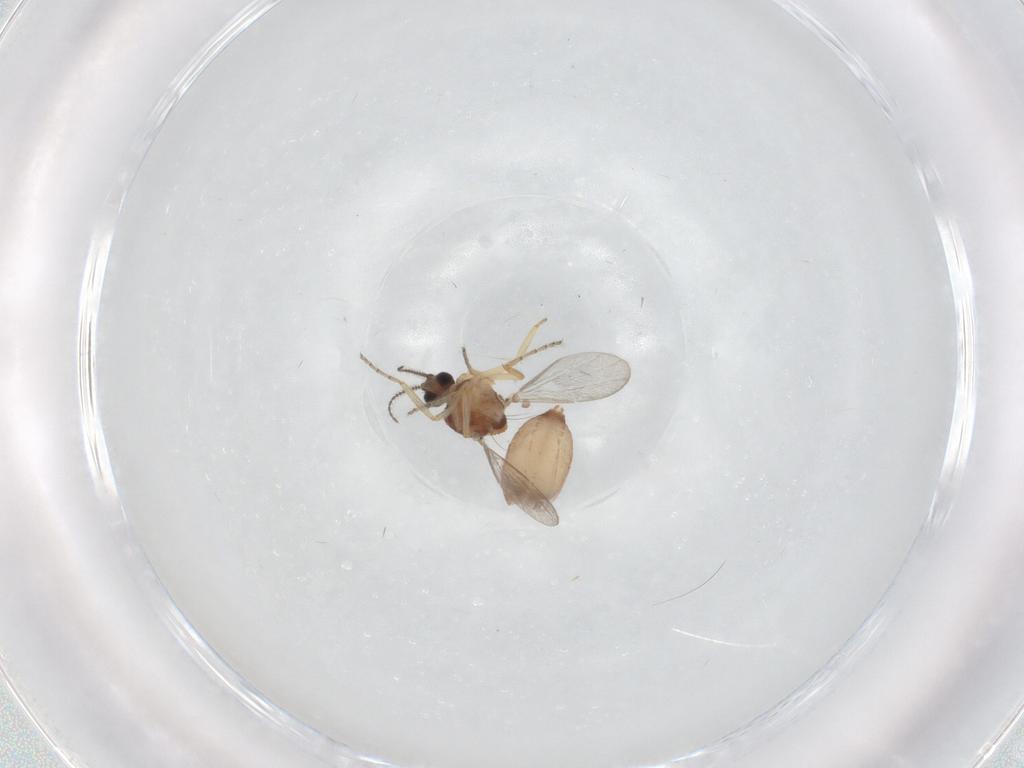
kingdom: Animalia
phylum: Arthropoda
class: Insecta
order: Diptera
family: Ceratopogonidae
